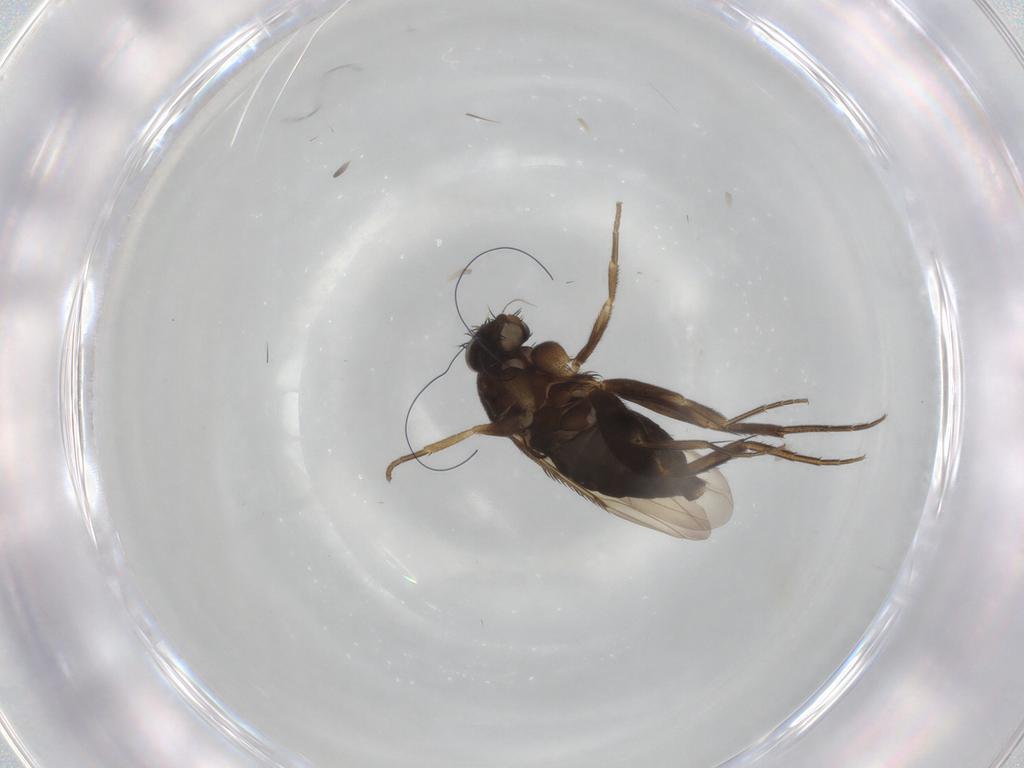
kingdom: Animalia
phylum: Arthropoda
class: Insecta
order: Diptera
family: Phoridae
